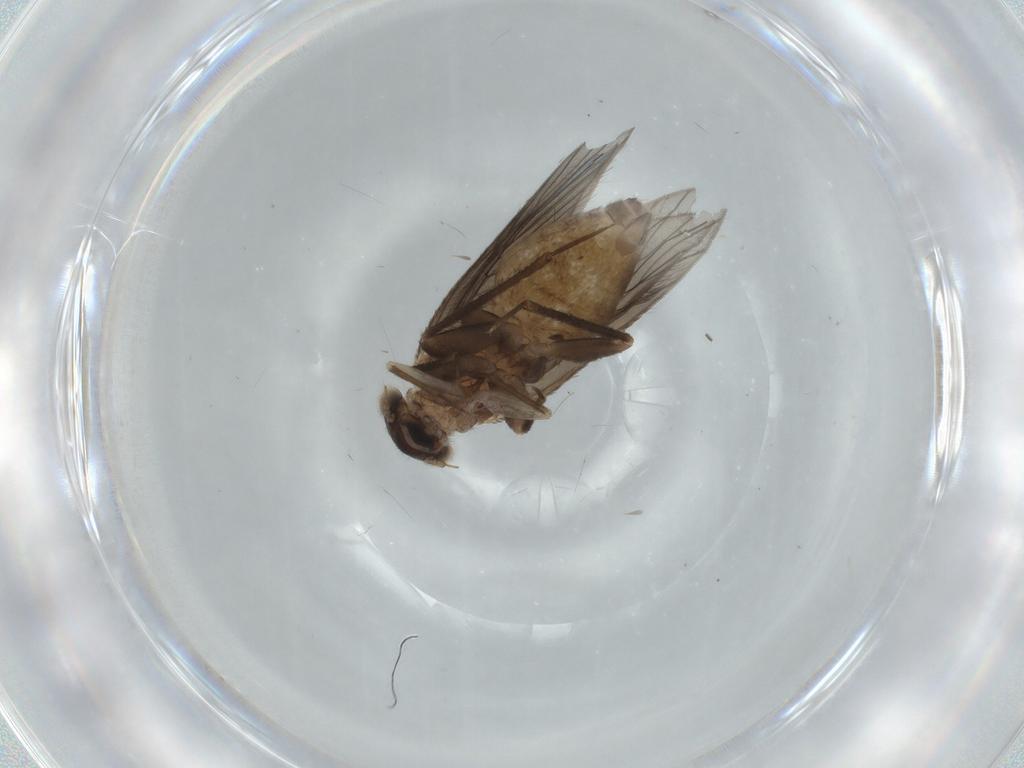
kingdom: Animalia
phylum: Arthropoda
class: Insecta
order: Psocodea
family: Lepidopsocidae
